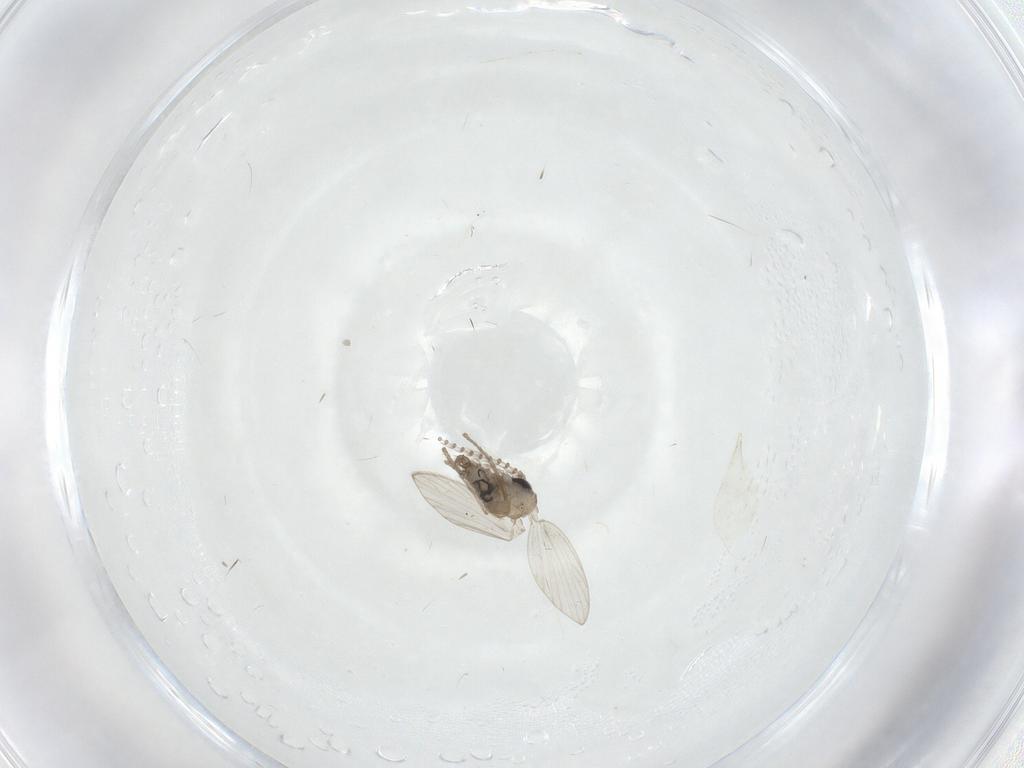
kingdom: Animalia
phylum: Arthropoda
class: Insecta
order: Diptera
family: Psychodidae
